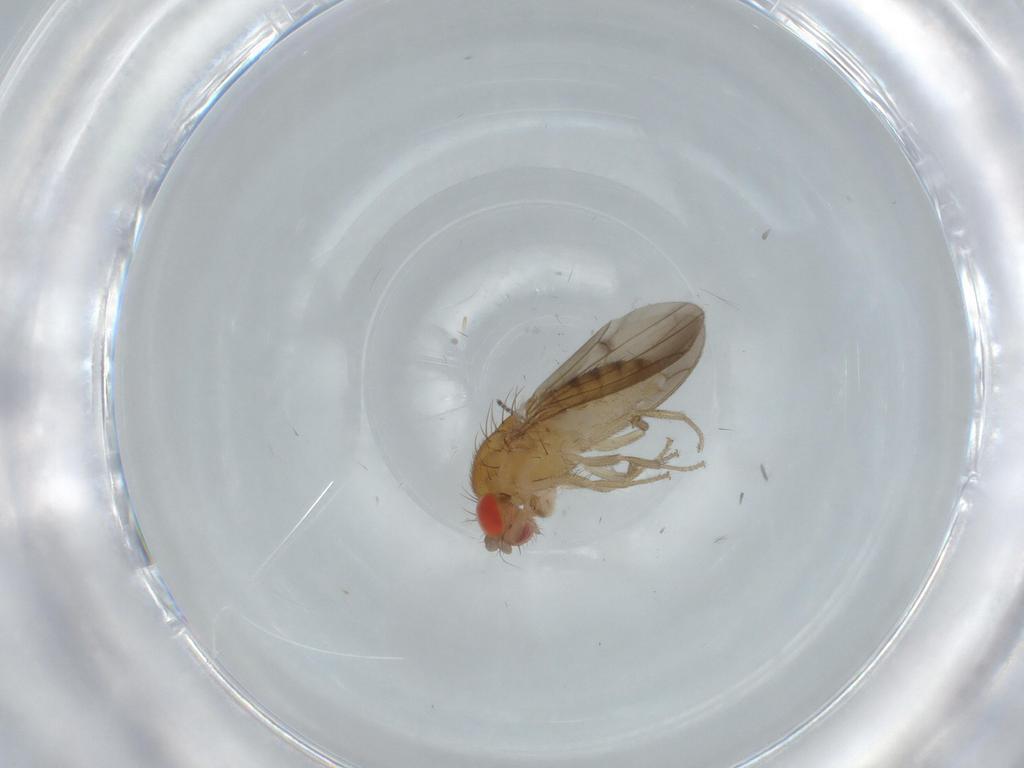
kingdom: Animalia
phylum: Arthropoda
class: Insecta
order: Diptera
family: Drosophilidae
